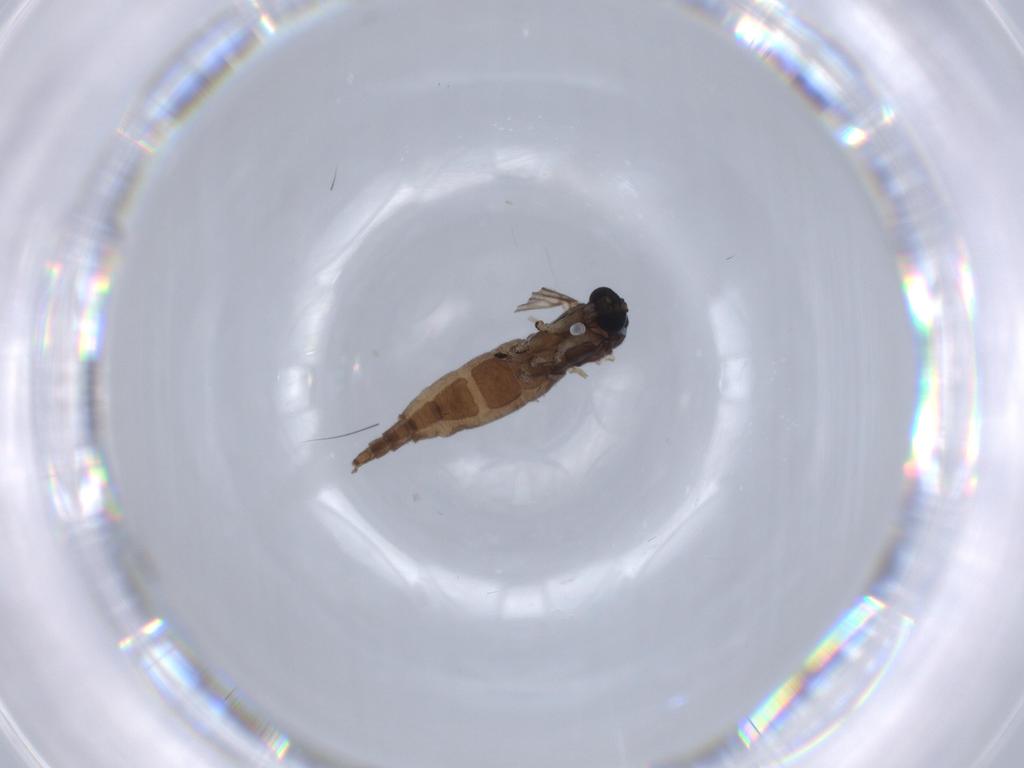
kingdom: Animalia
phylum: Arthropoda
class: Insecta
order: Diptera
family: Sciaridae
